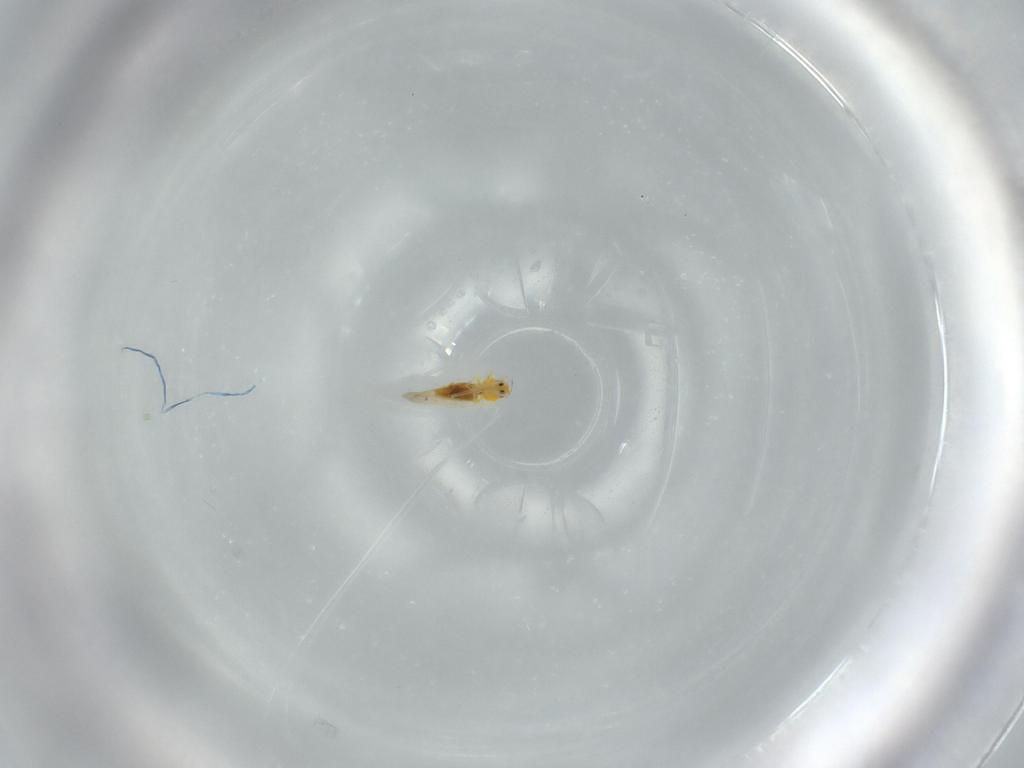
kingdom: Animalia
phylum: Arthropoda
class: Insecta
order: Hemiptera
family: Aleyrodidae
